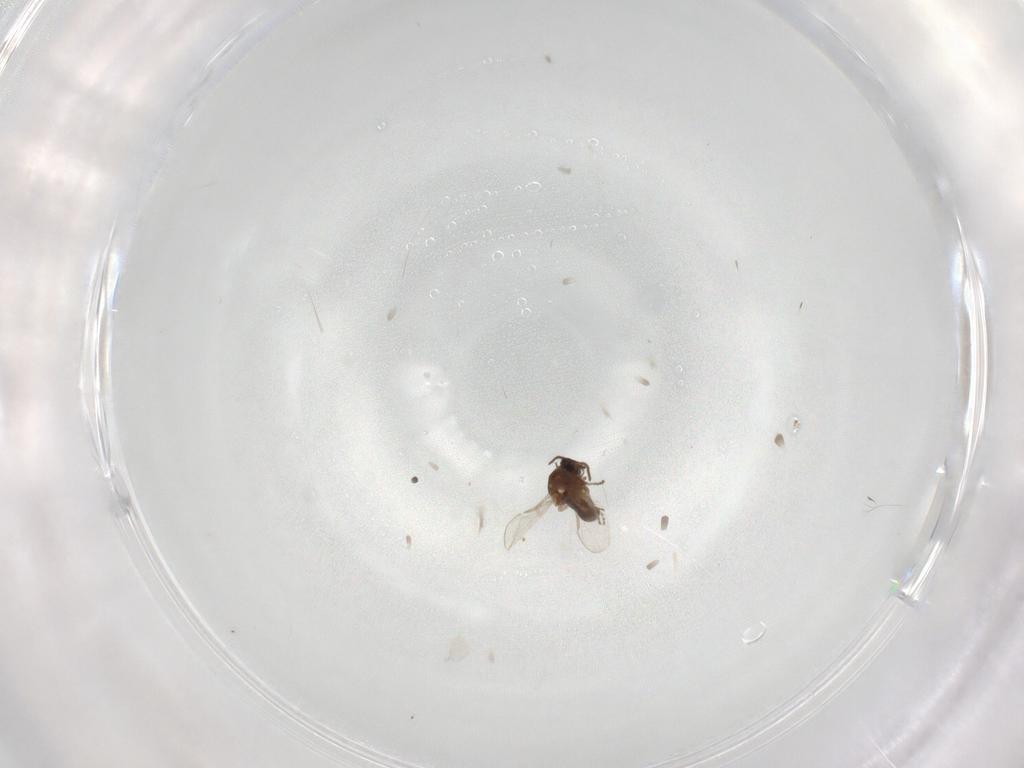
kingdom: Animalia
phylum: Arthropoda
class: Insecta
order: Diptera
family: Ceratopogonidae
